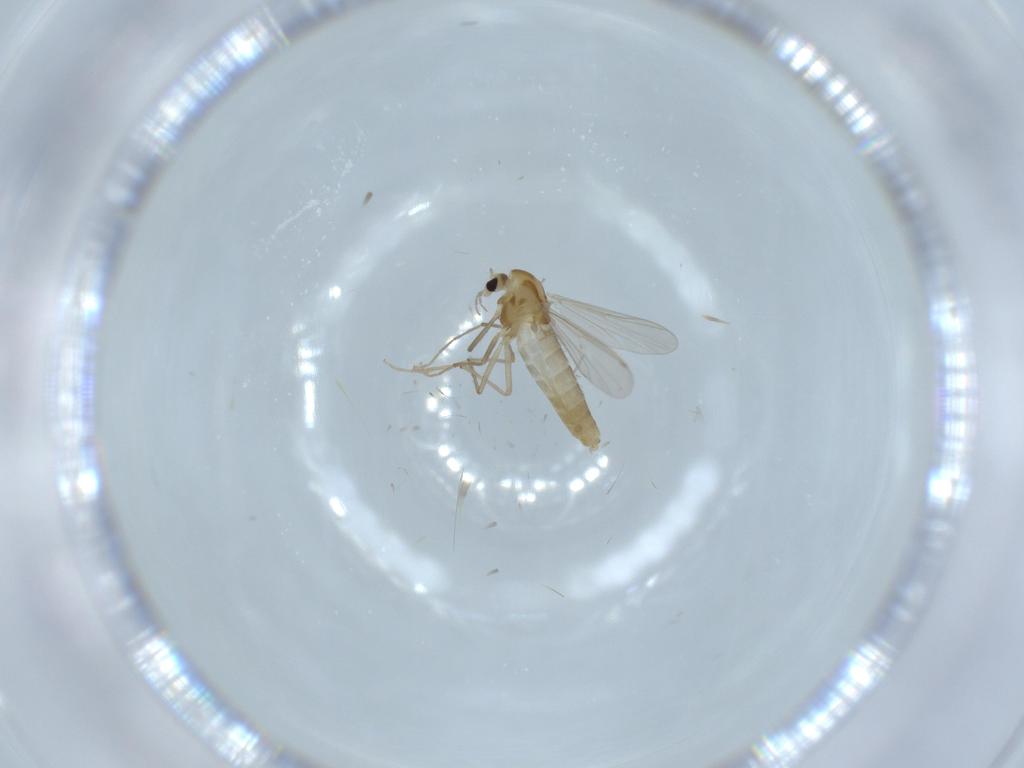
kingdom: Animalia
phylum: Arthropoda
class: Insecta
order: Diptera
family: Chironomidae
